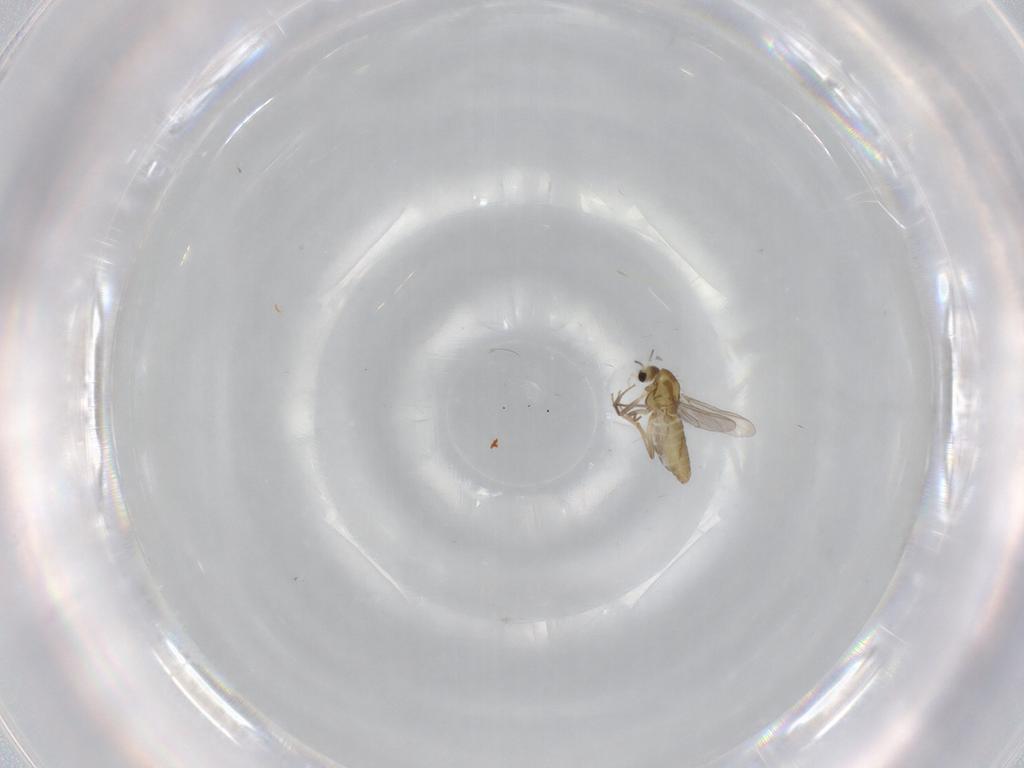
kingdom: Animalia
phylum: Arthropoda
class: Insecta
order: Diptera
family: Chironomidae
